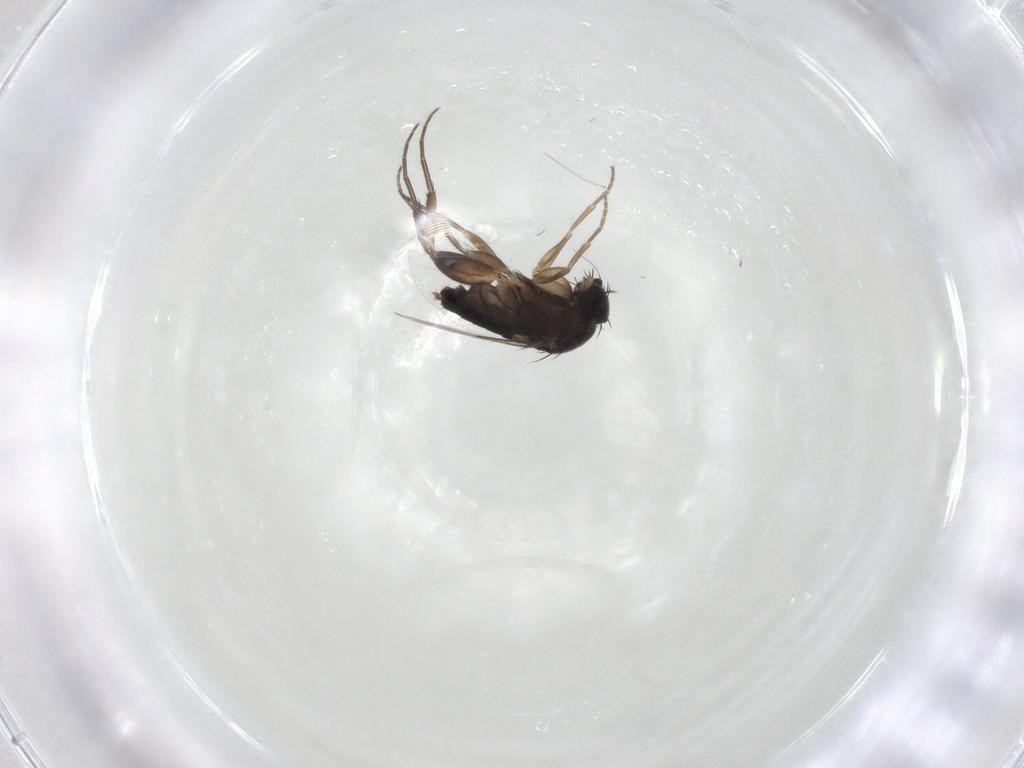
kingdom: Animalia
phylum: Arthropoda
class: Insecta
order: Diptera
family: Phoridae
